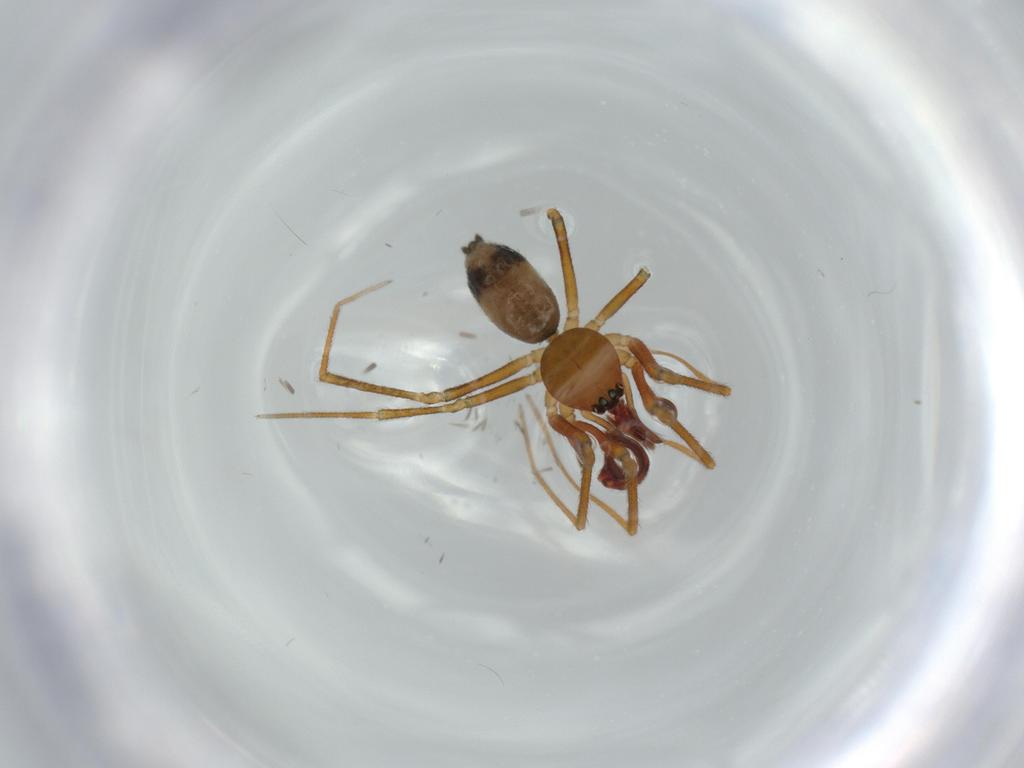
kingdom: Animalia
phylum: Arthropoda
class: Arachnida
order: Araneae
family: Linyphiidae
